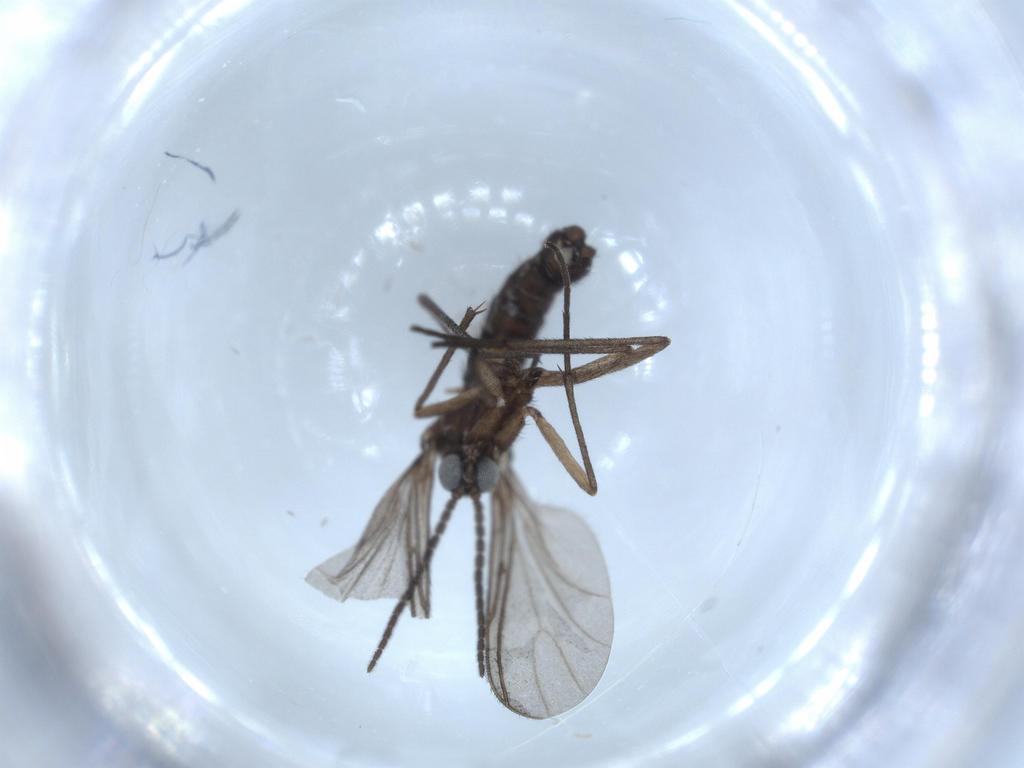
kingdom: Animalia
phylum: Arthropoda
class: Insecta
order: Diptera
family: Sciaridae
